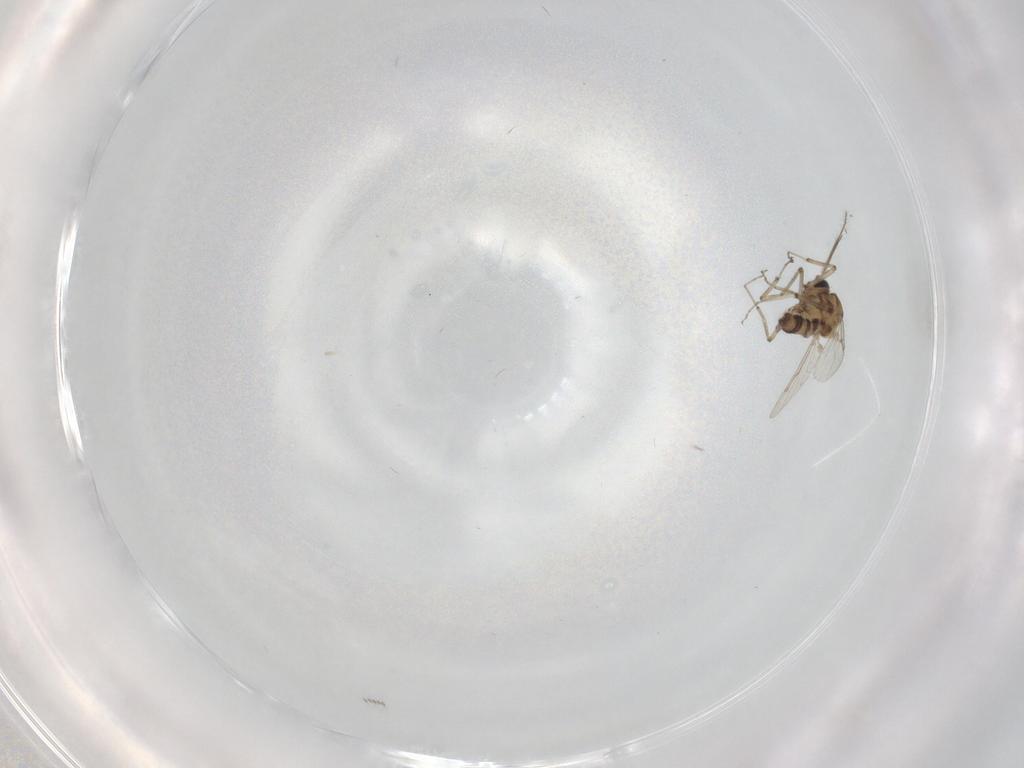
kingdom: Animalia
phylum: Arthropoda
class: Insecta
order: Diptera
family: Ceratopogonidae
